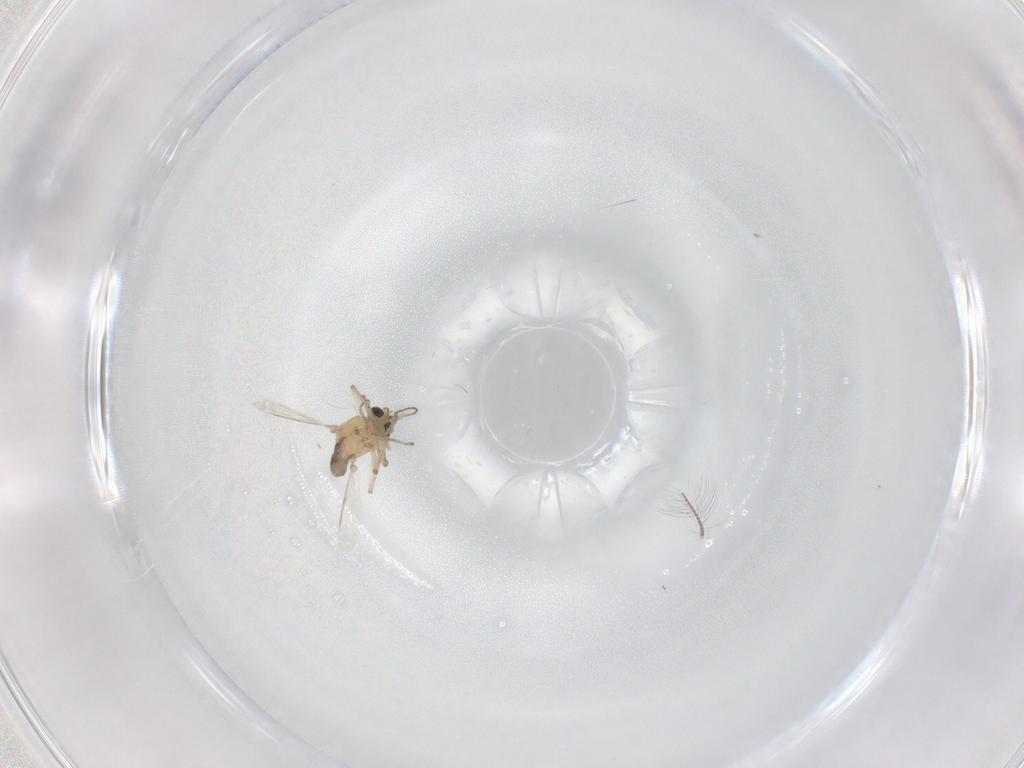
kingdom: Animalia
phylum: Arthropoda
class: Insecta
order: Diptera
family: Ceratopogonidae
